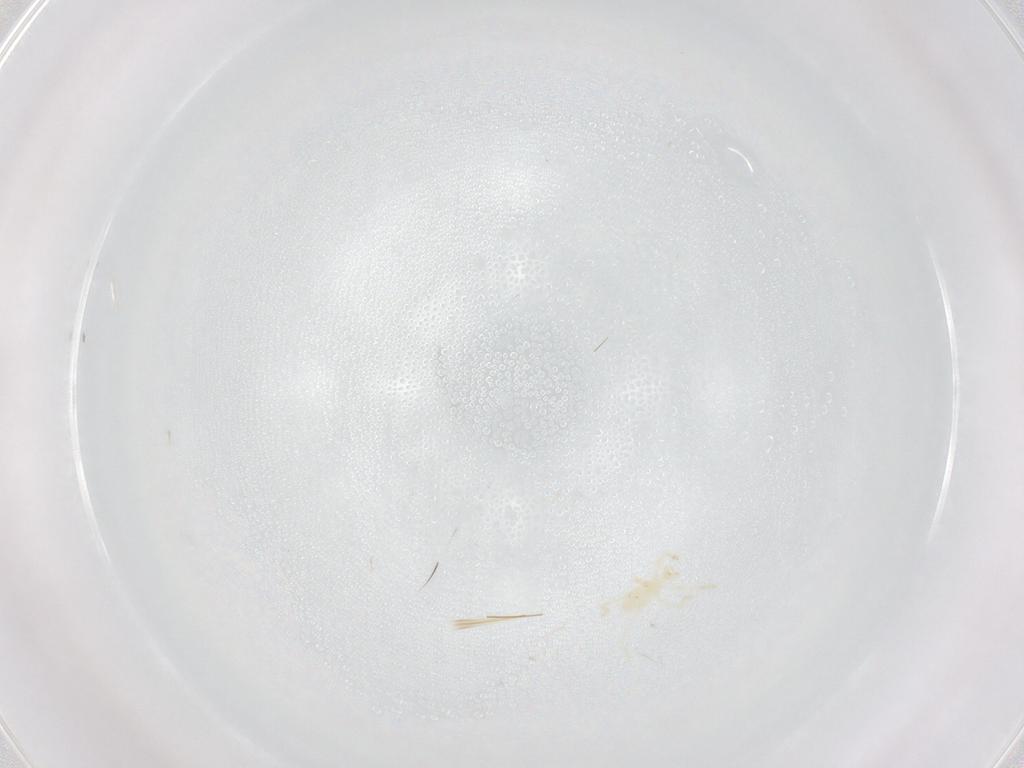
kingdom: Animalia
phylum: Arthropoda
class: Arachnida
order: Trombidiformes
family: Erythraeidae
